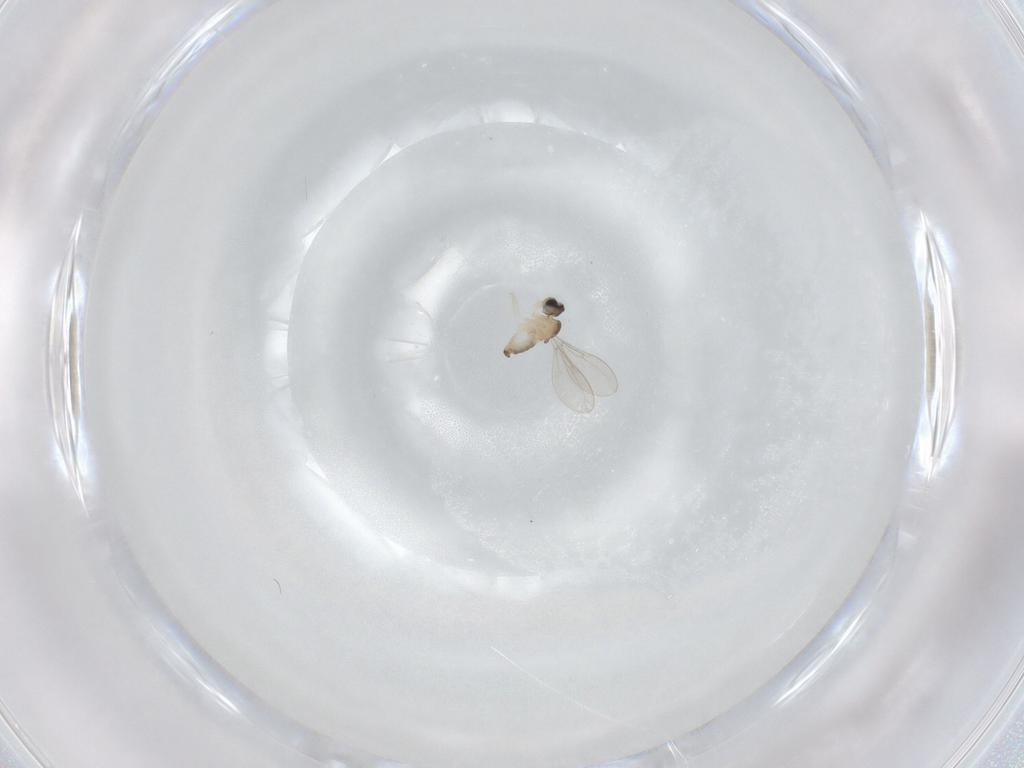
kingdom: Animalia
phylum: Arthropoda
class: Insecta
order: Diptera
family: Cecidomyiidae
